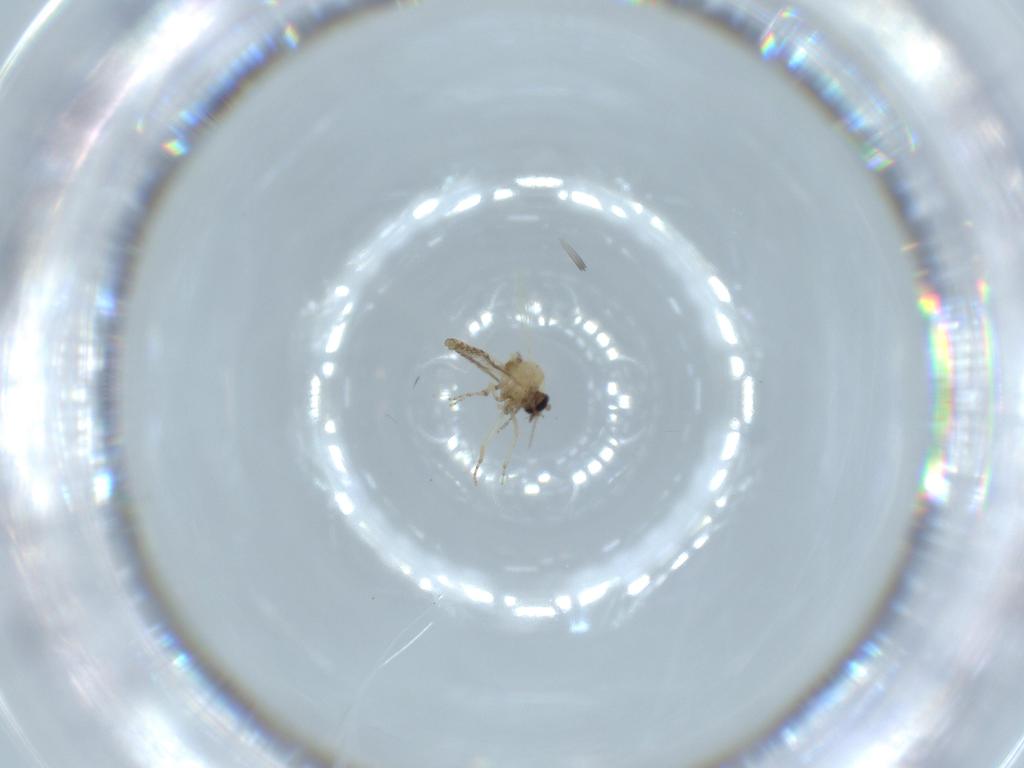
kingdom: Animalia
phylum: Arthropoda
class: Insecta
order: Diptera
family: Ceratopogonidae
